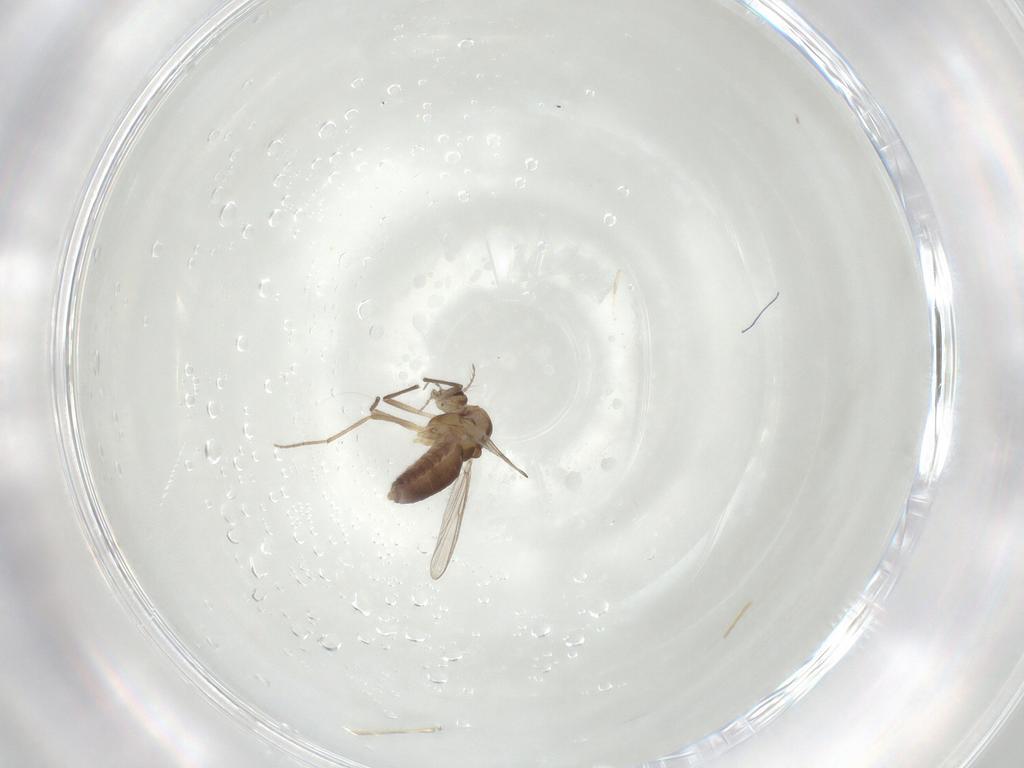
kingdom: Animalia
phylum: Arthropoda
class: Insecta
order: Diptera
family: Chironomidae
